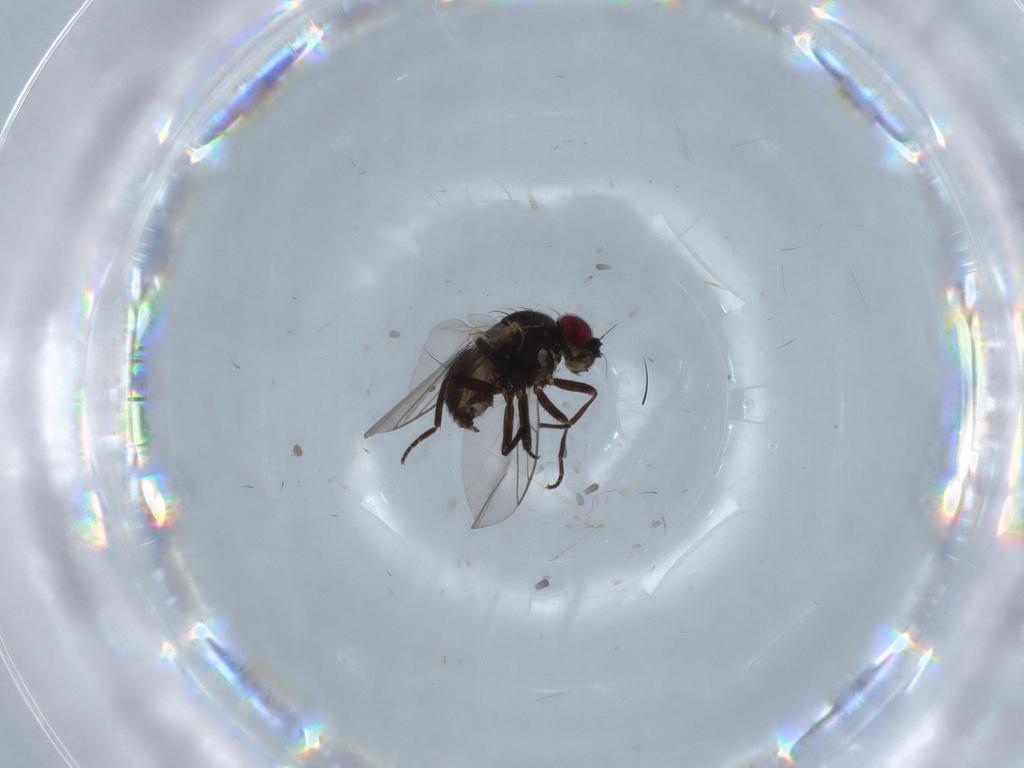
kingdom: Animalia
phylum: Arthropoda
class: Insecta
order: Diptera
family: Agromyzidae
